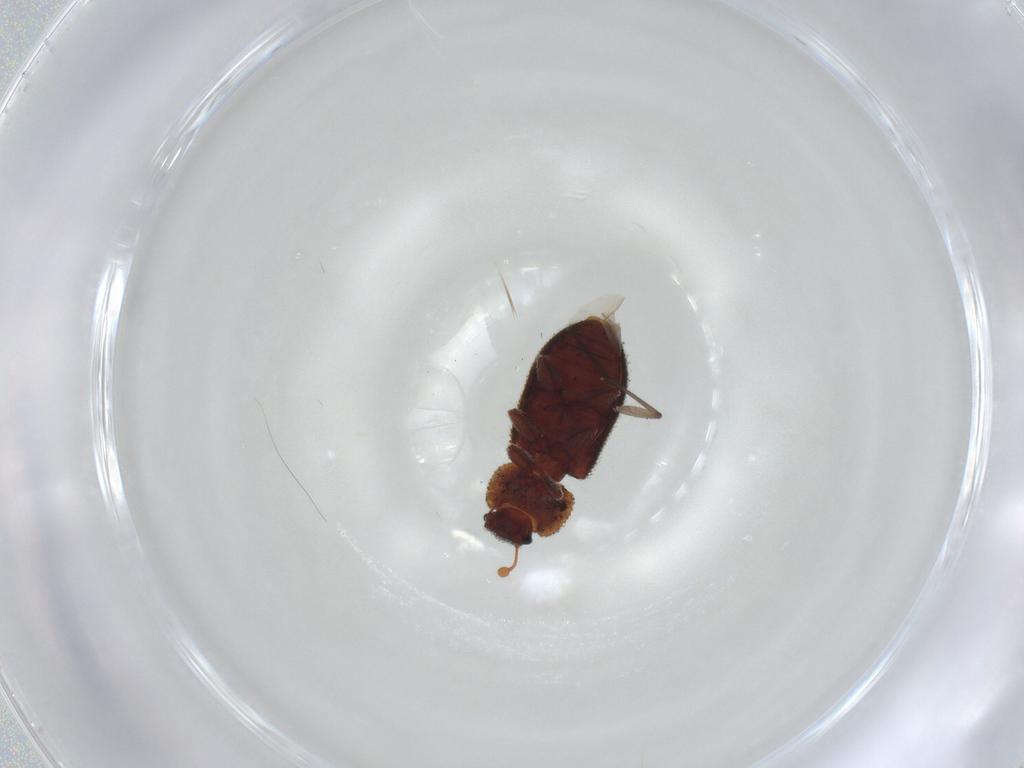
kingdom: Animalia
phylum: Arthropoda
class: Insecta
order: Coleoptera
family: Zopheridae
